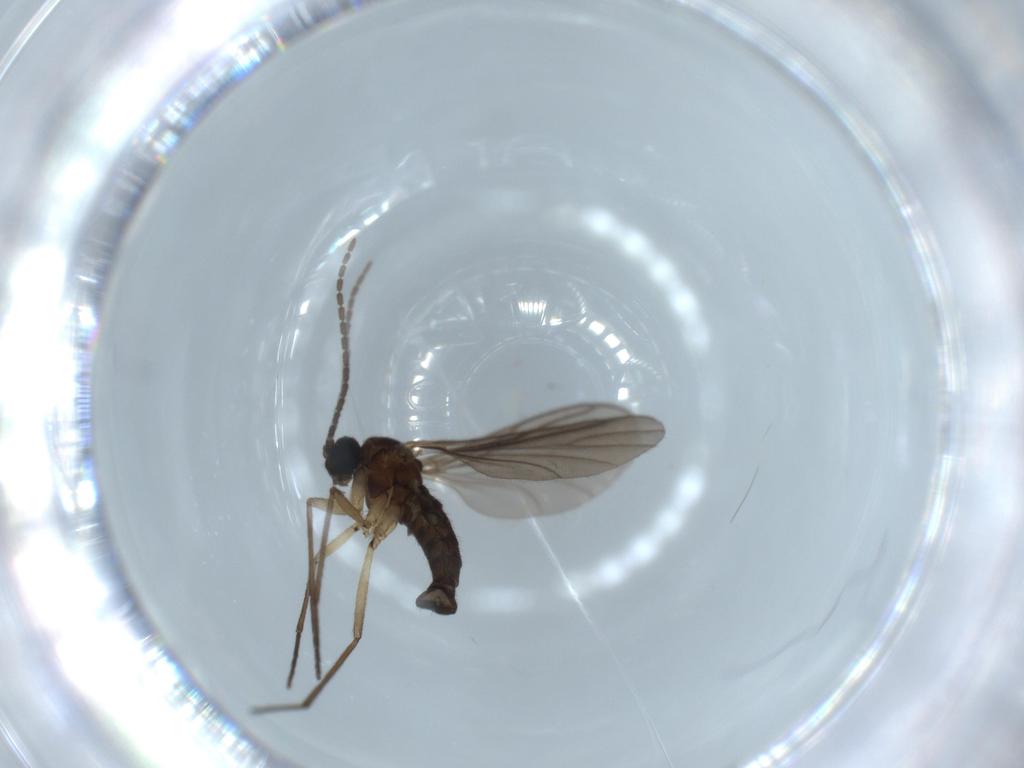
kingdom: Animalia
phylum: Arthropoda
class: Insecta
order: Diptera
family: Sciaridae
